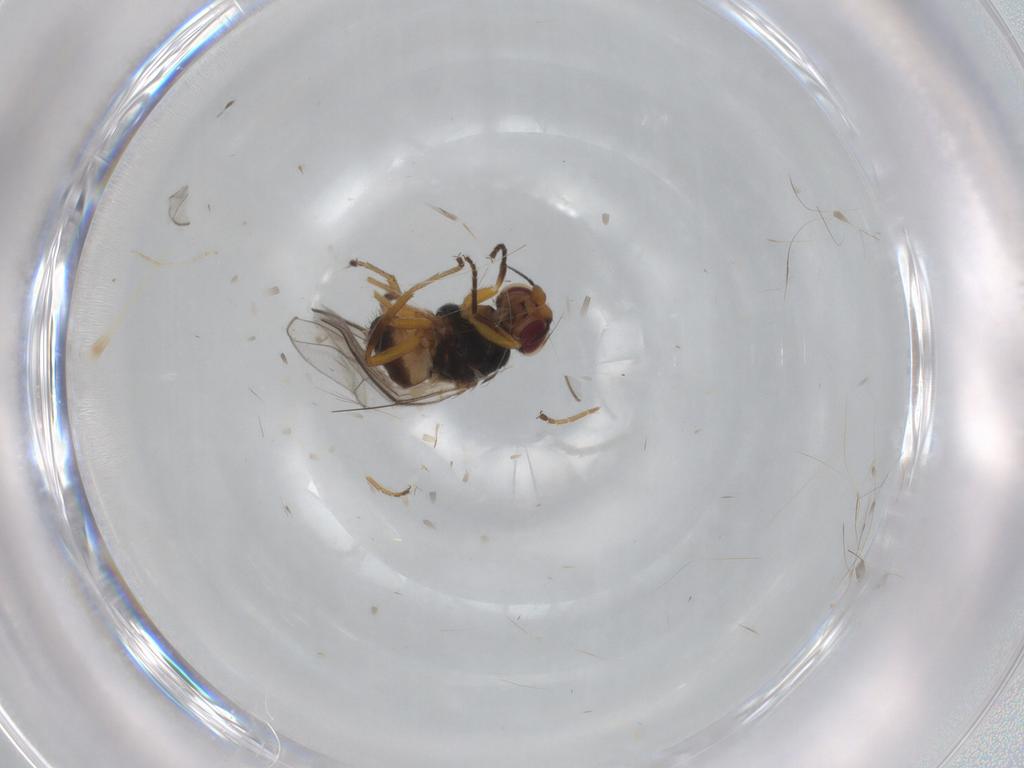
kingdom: Animalia
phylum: Arthropoda
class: Insecta
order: Diptera
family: Chloropidae
